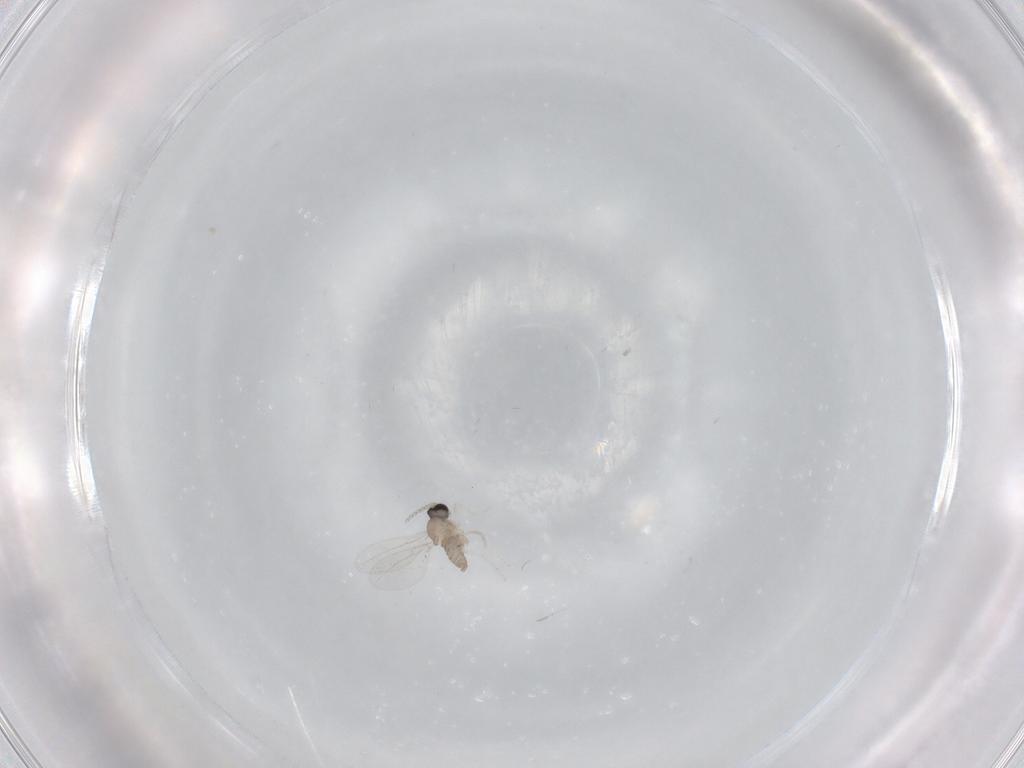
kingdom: Animalia
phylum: Arthropoda
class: Insecta
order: Diptera
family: Cecidomyiidae
